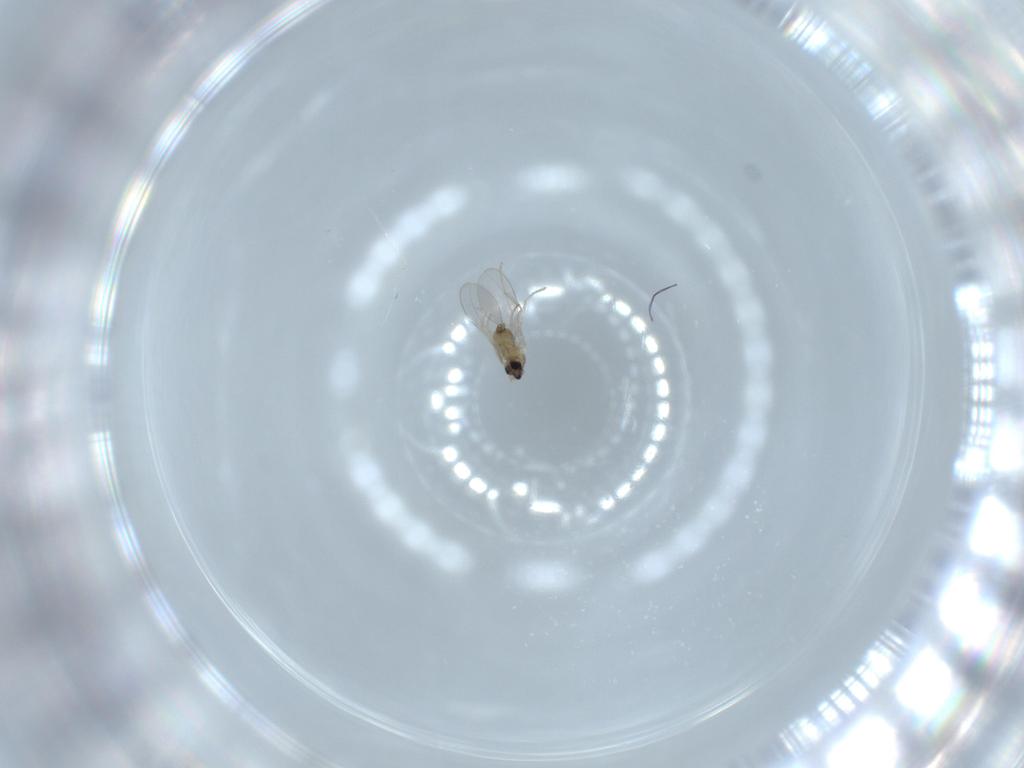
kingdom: Animalia
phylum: Arthropoda
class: Insecta
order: Diptera
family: Cecidomyiidae
